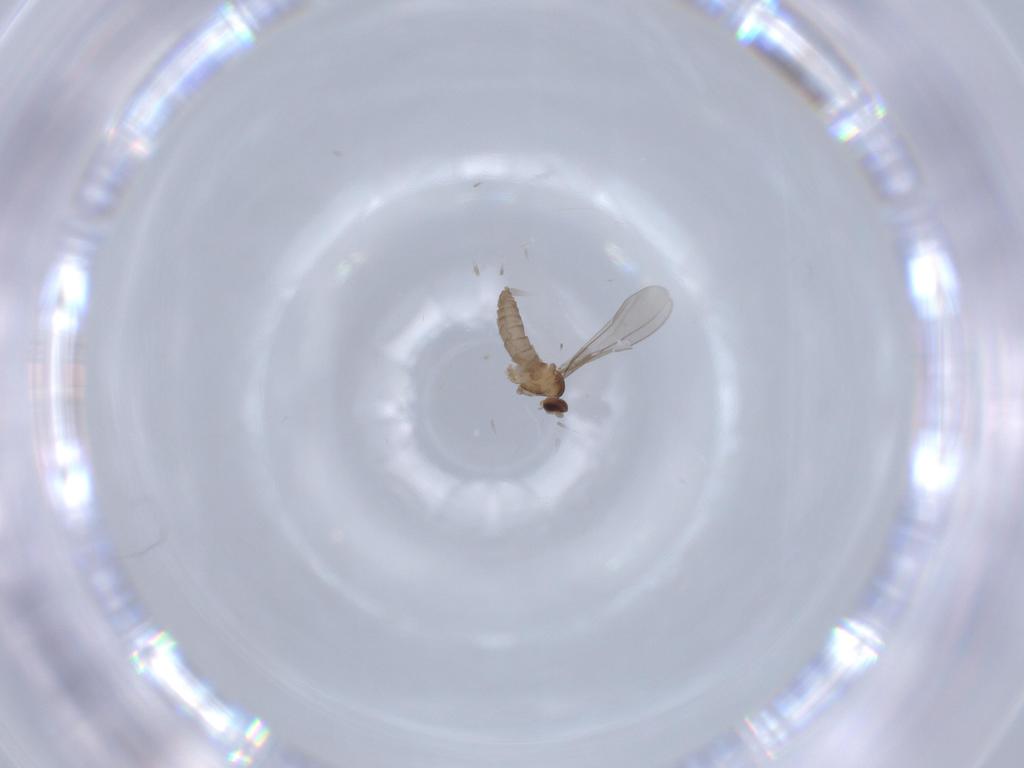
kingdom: Animalia
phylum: Arthropoda
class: Insecta
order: Diptera
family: Cecidomyiidae
